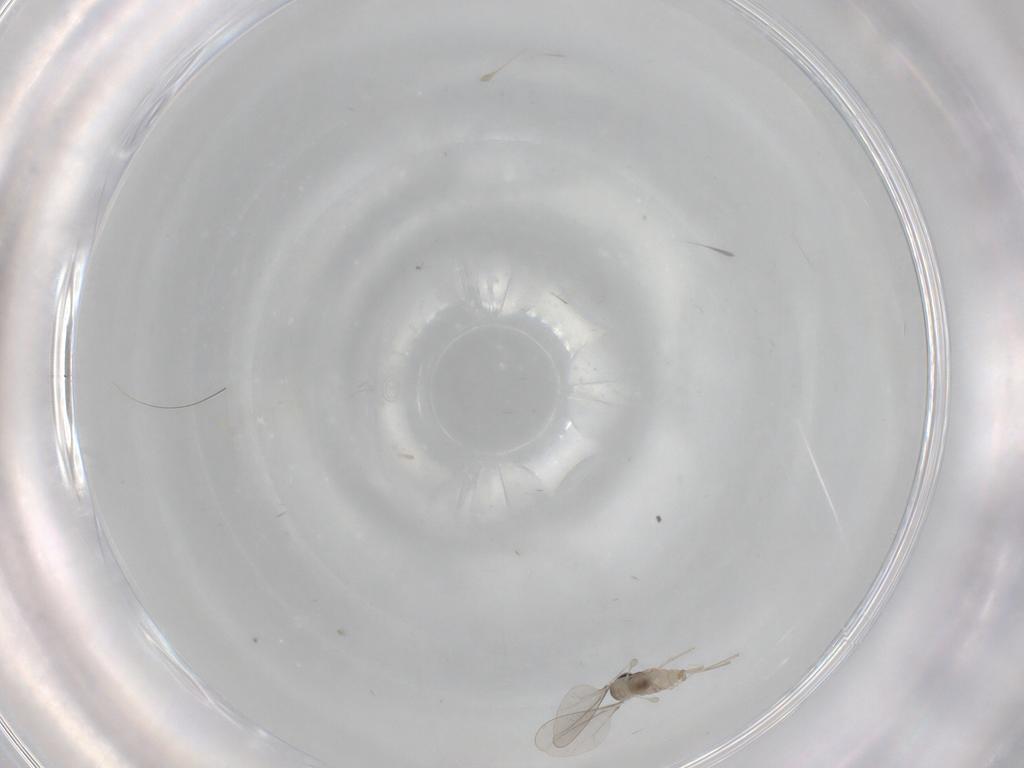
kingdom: Animalia
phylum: Arthropoda
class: Insecta
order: Diptera
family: Cecidomyiidae
